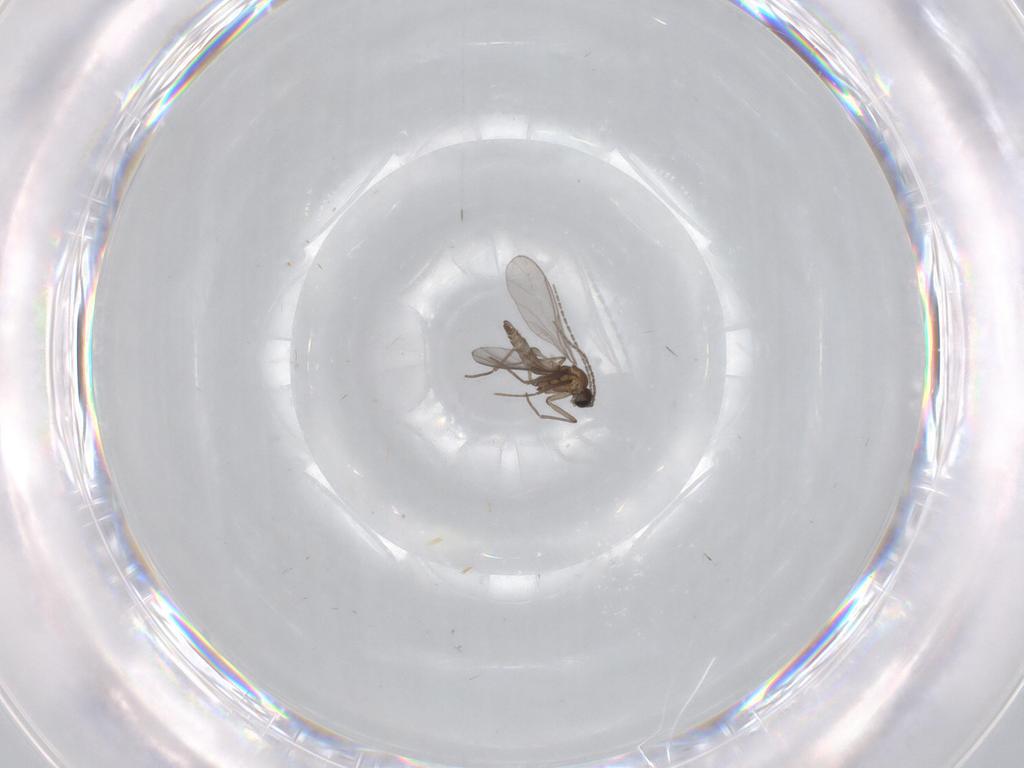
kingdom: Animalia
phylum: Arthropoda
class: Insecta
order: Diptera
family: Sciaridae
